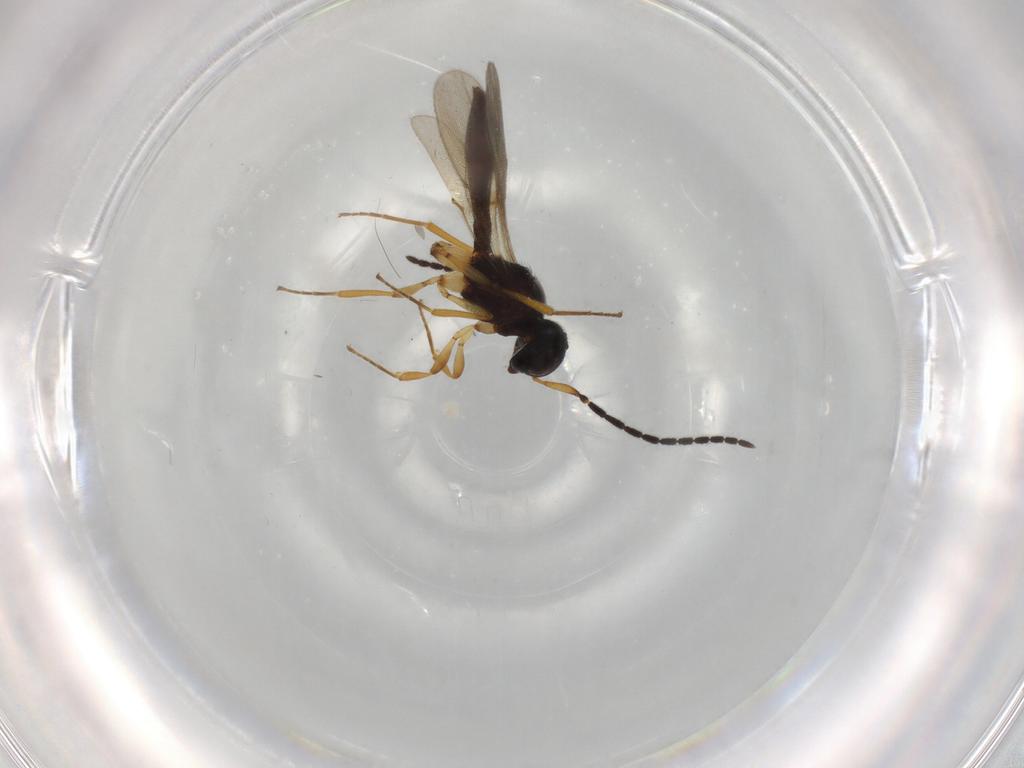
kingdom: Animalia
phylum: Arthropoda
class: Insecta
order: Hymenoptera
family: Scelionidae
